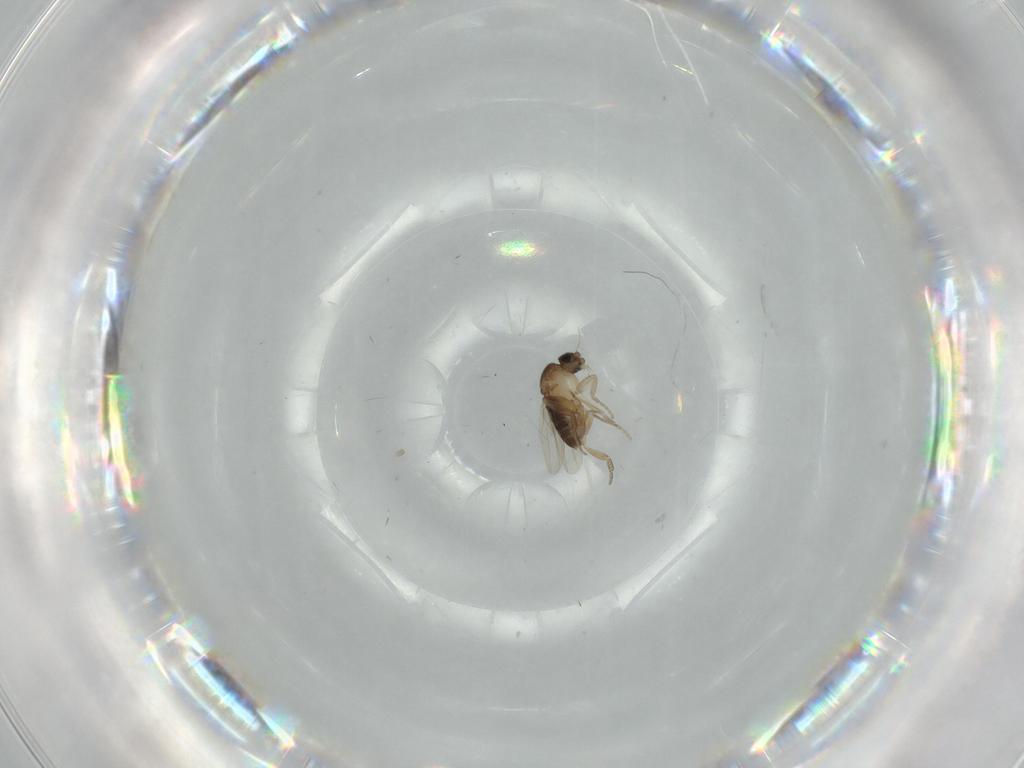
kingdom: Animalia
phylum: Arthropoda
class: Insecta
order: Diptera
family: Phoridae
